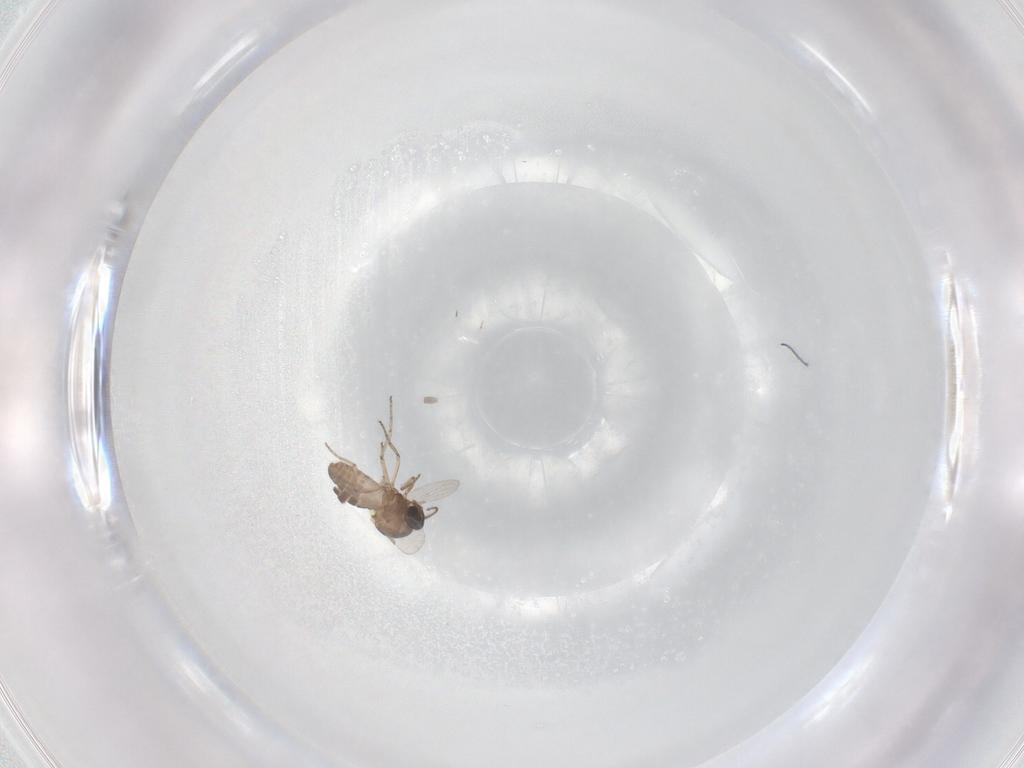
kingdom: Animalia
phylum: Arthropoda
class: Insecta
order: Diptera
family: Ceratopogonidae
